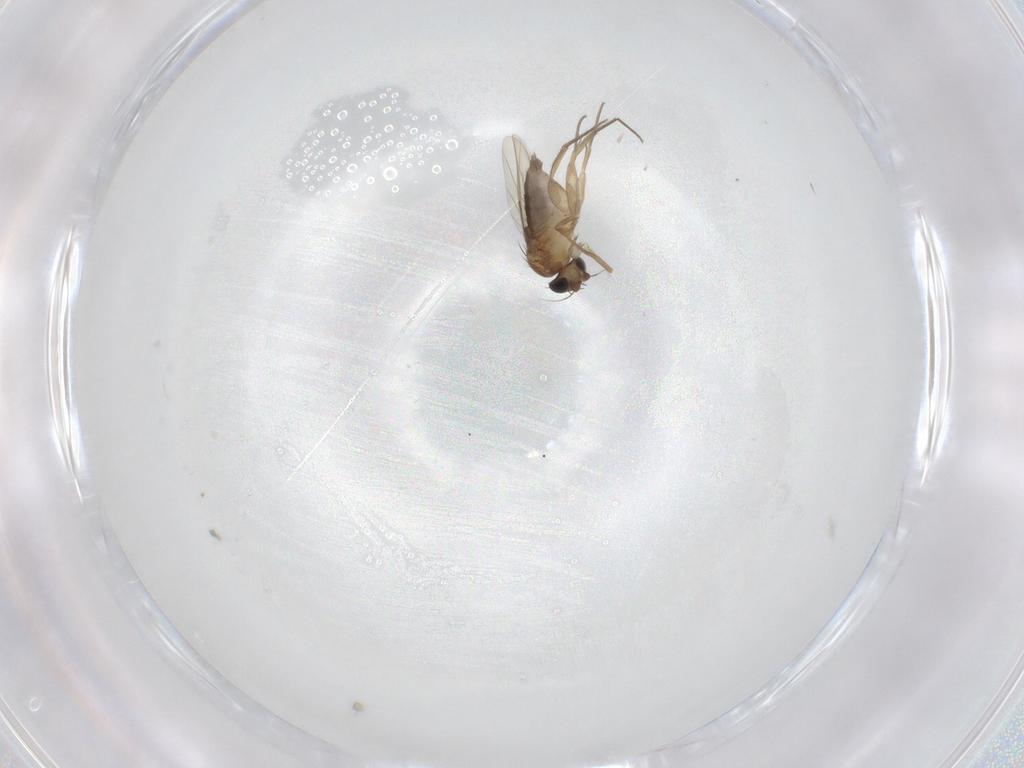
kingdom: Animalia
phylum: Arthropoda
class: Insecta
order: Diptera
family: Phoridae
